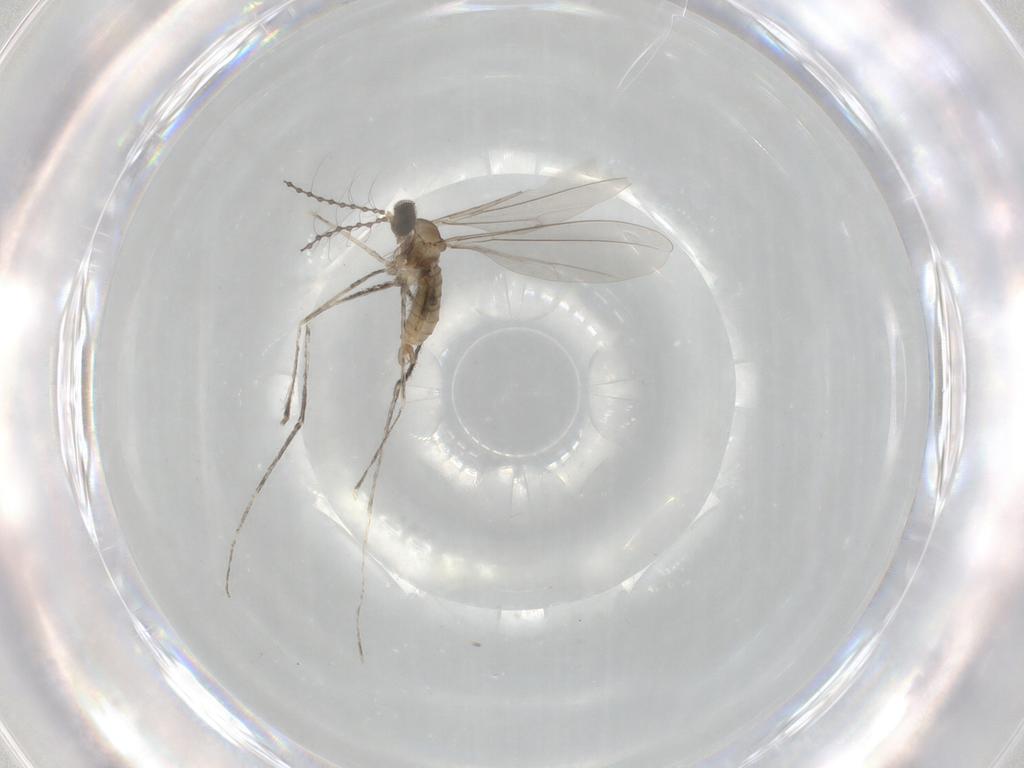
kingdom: Animalia
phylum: Arthropoda
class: Insecta
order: Diptera
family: Cecidomyiidae
